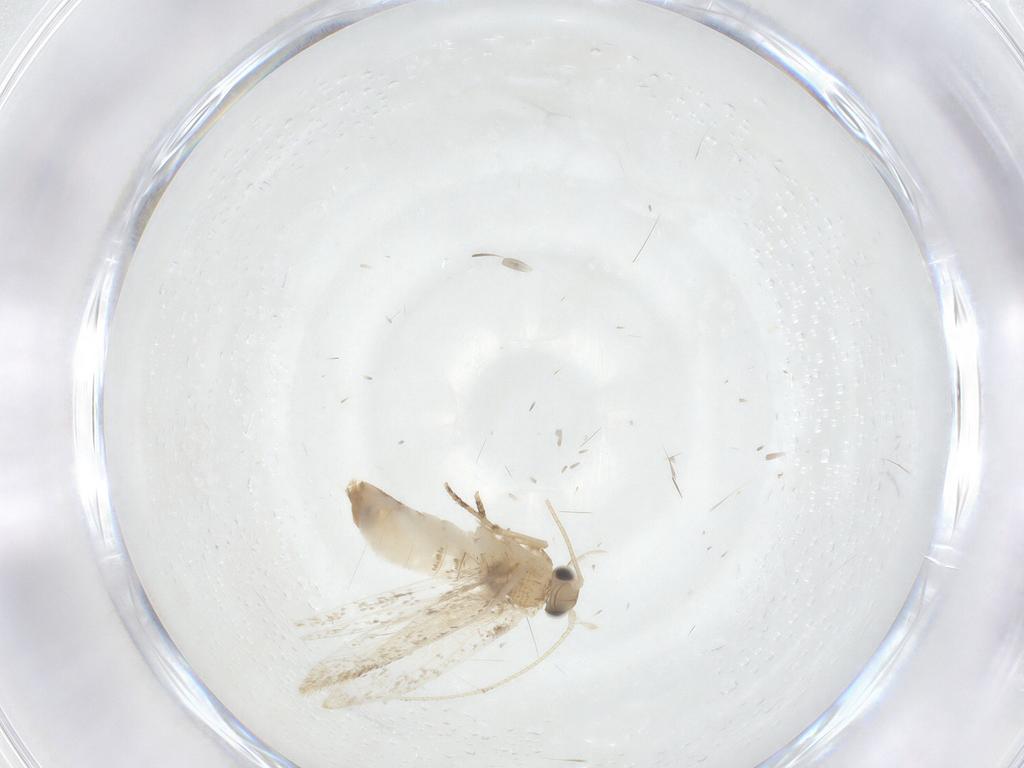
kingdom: Animalia
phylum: Arthropoda
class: Insecta
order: Lepidoptera
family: Dryadaulidae
